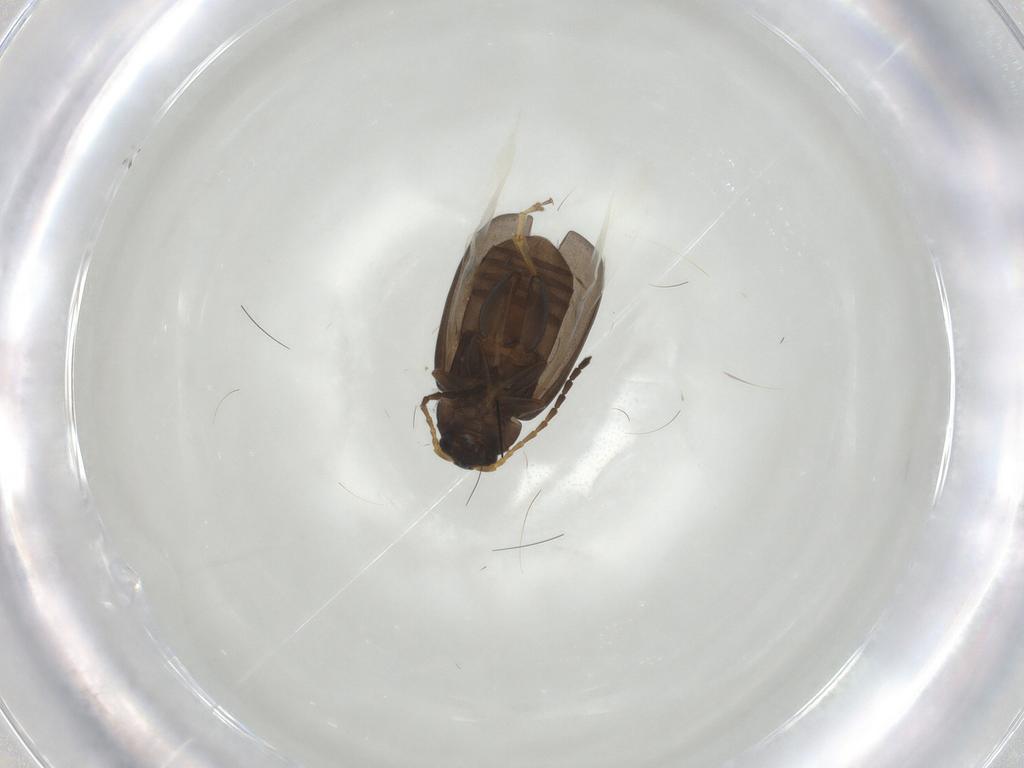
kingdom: Animalia
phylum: Arthropoda
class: Insecta
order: Coleoptera
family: Chrysomelidae
